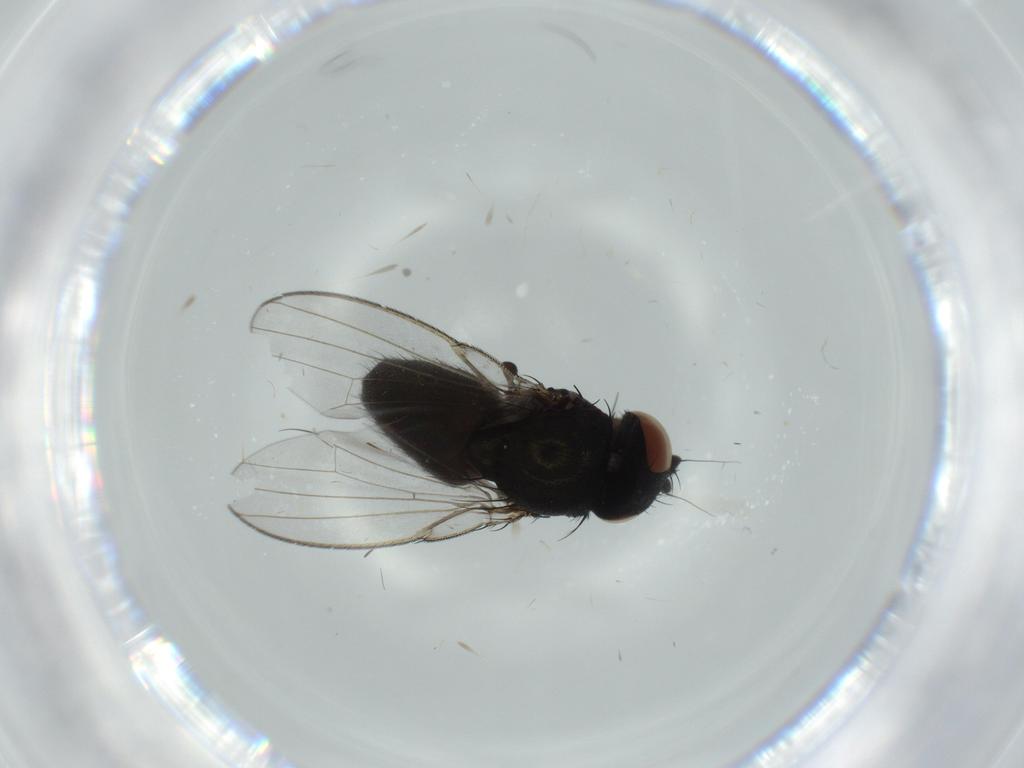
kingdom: Animalia
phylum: Arthropoda
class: Insecta
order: Diptera
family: Milichiidae
